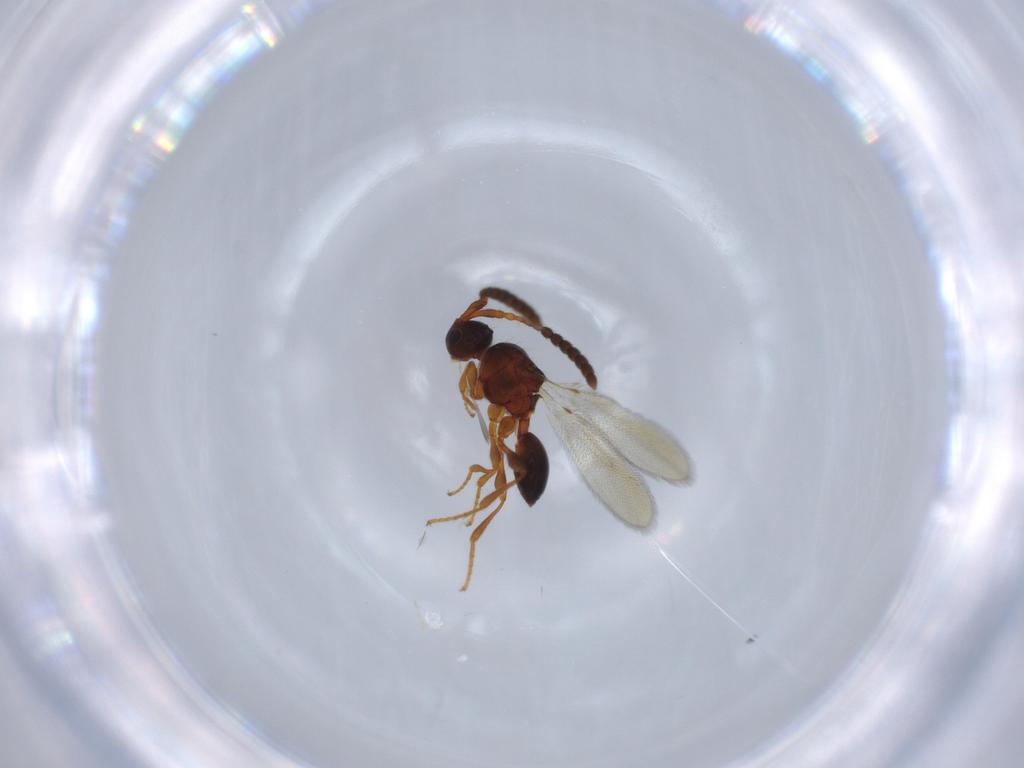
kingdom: Animalia
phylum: Arthropoda
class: Insecta
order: Hymenoptera
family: Diapriidae
